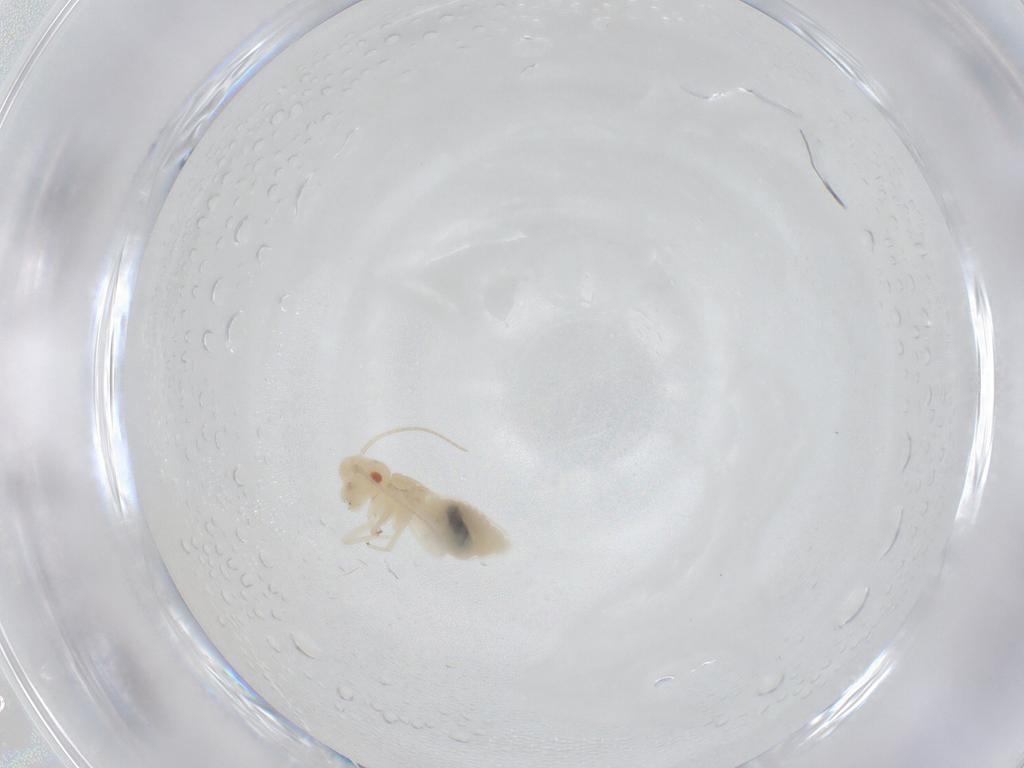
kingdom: Animalia
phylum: Arthropoda
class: Insecta
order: Psocodea
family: Caeciliusidae
